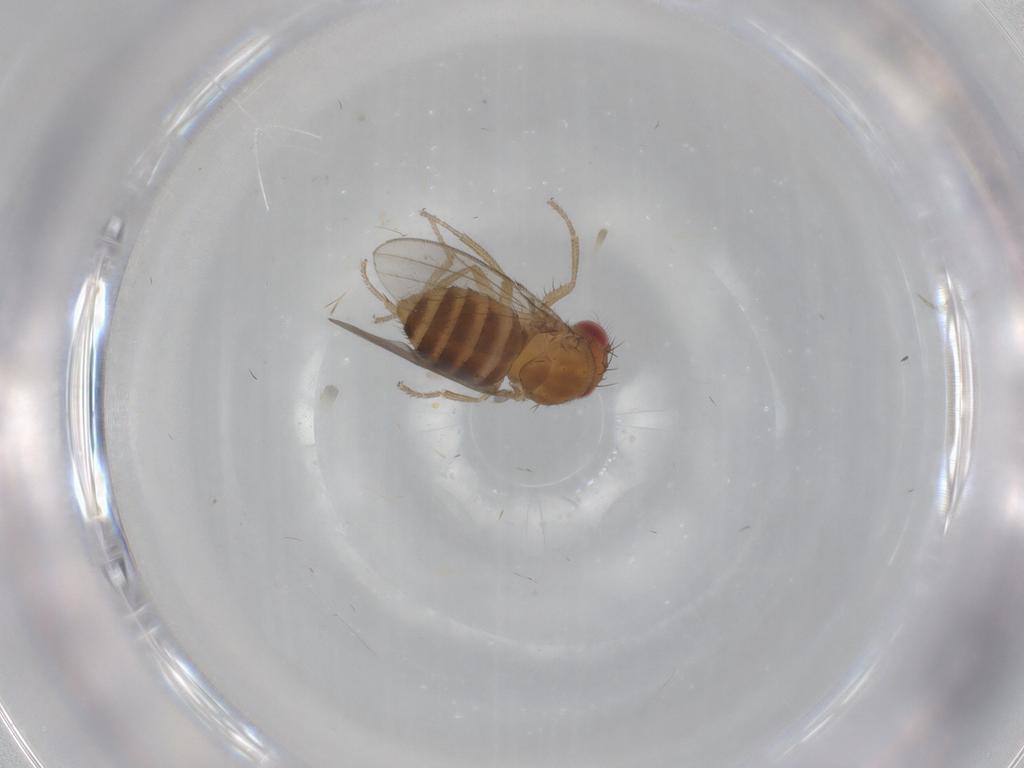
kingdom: Animalia
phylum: Arthropoda
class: Insecta
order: Diptera
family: Drosophilidae
